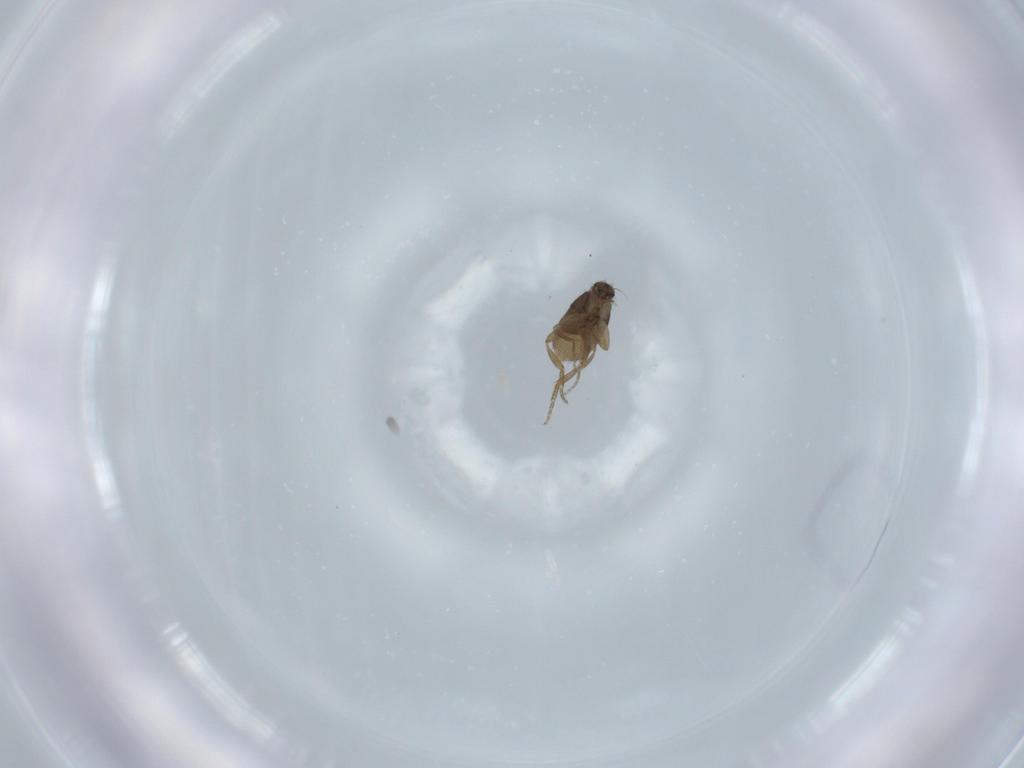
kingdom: Animalia
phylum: Arthropoda
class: Insecta
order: Diptera
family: Phoridae
